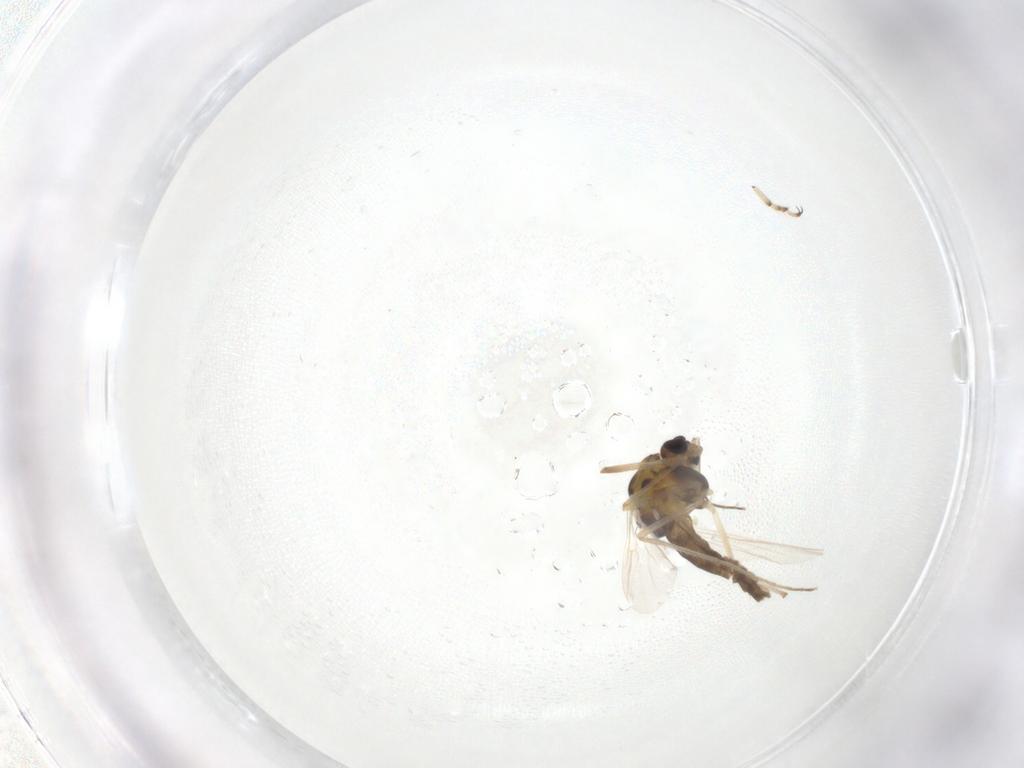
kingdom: Animalia
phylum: Arthropoda
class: Insecta
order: Diptera
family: Chironomidae
